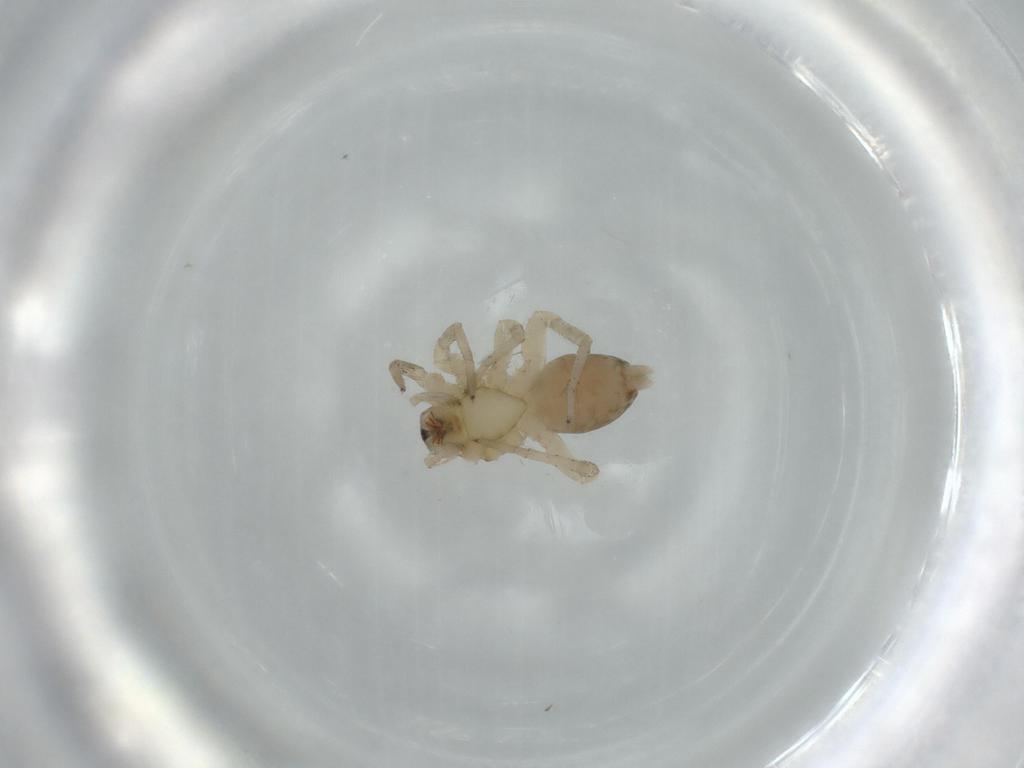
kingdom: Animalia
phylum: Arthropoda
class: Arachnida
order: Araneae
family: Amaurobiidae
